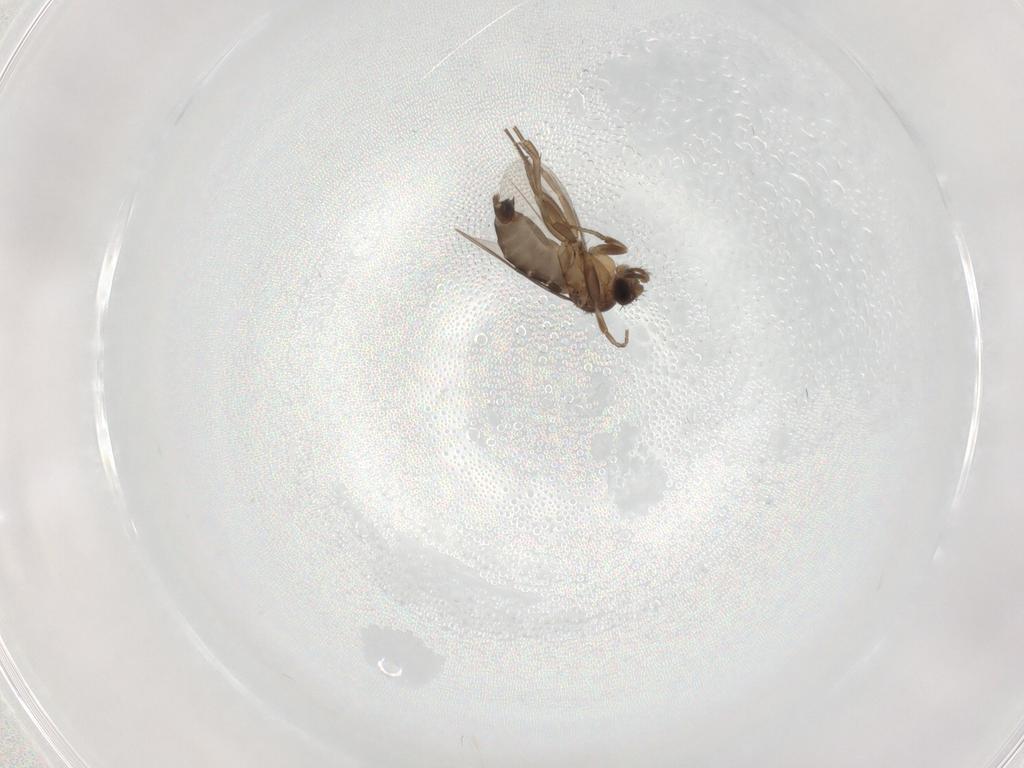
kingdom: Animalia
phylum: Arthropoda
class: Insecta
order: Diptera
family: Phoridae
